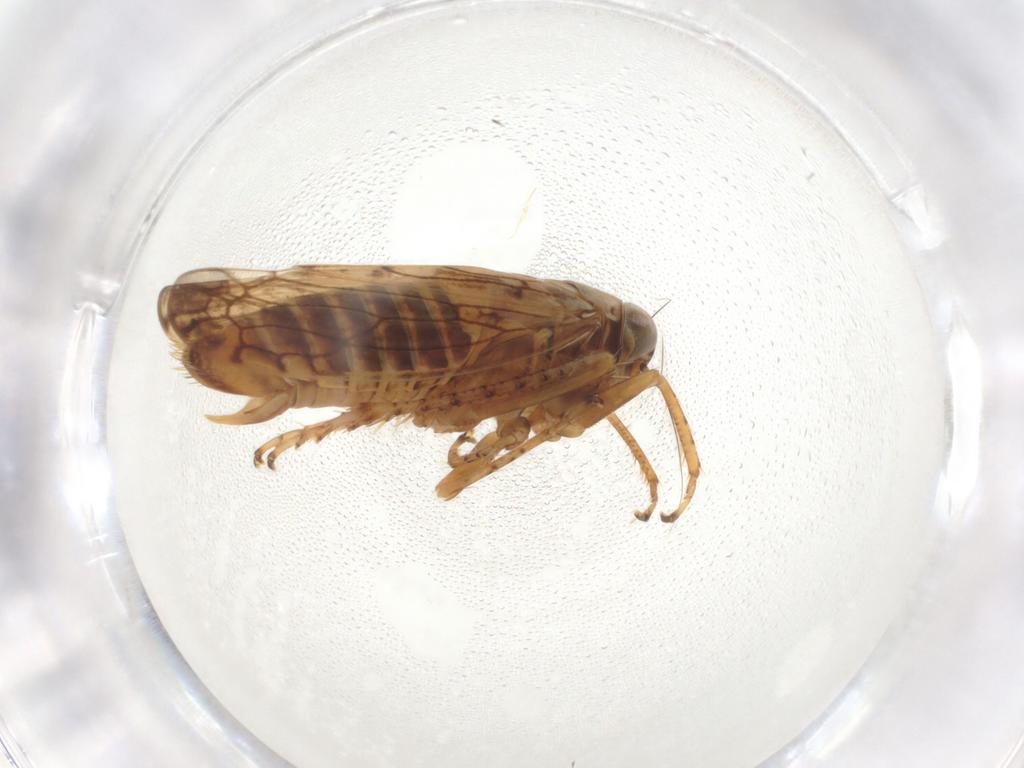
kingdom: Animalia
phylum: Arthropoda
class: Insecta
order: Hemiptera
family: Cicadellidae
